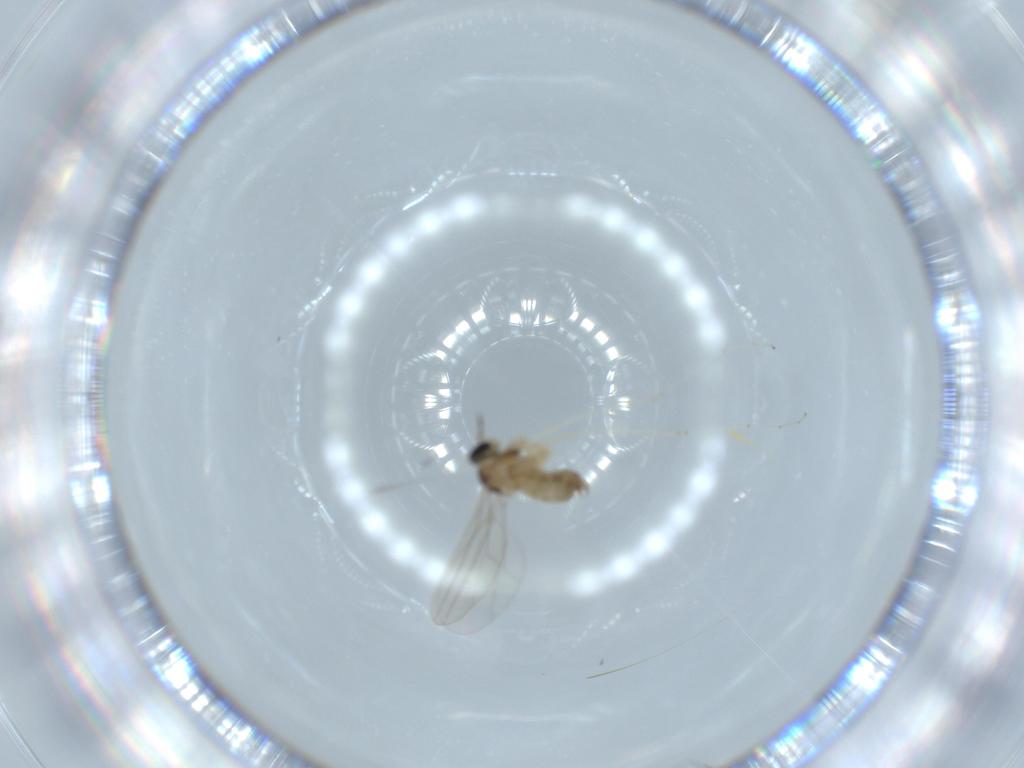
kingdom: Animalia
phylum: Arthropoda
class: Insecta
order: Diptera
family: Cecidomyiidae
